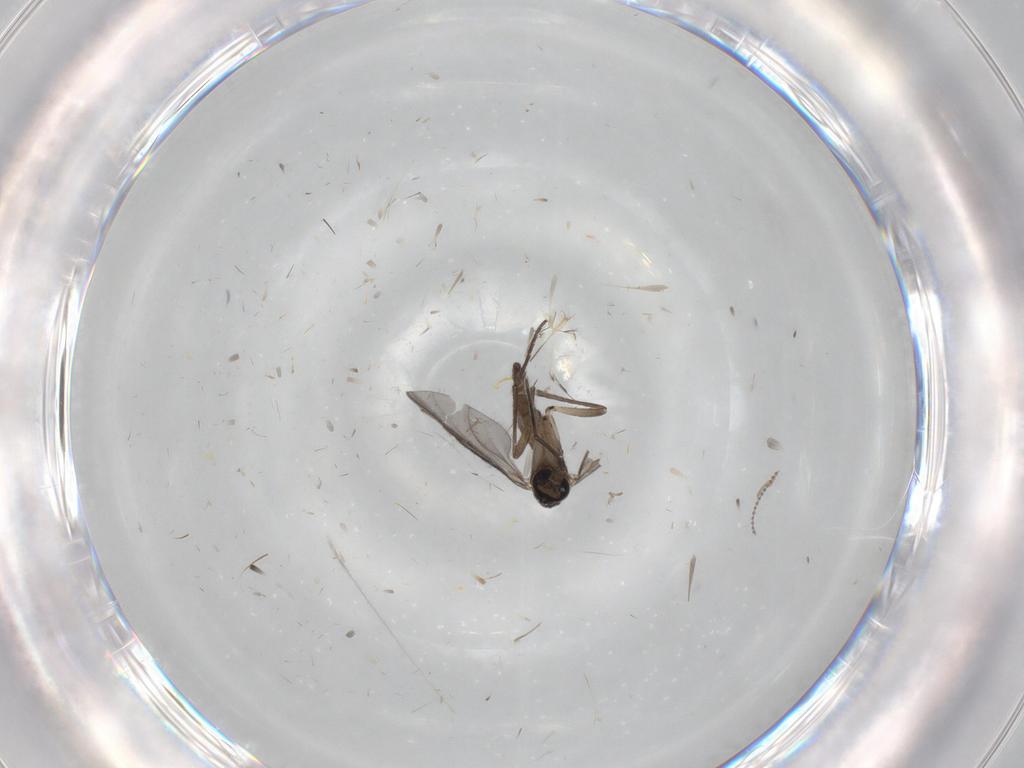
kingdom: Animalia
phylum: Arthropoda
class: Insecta
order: Diptera
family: Sciaridae
